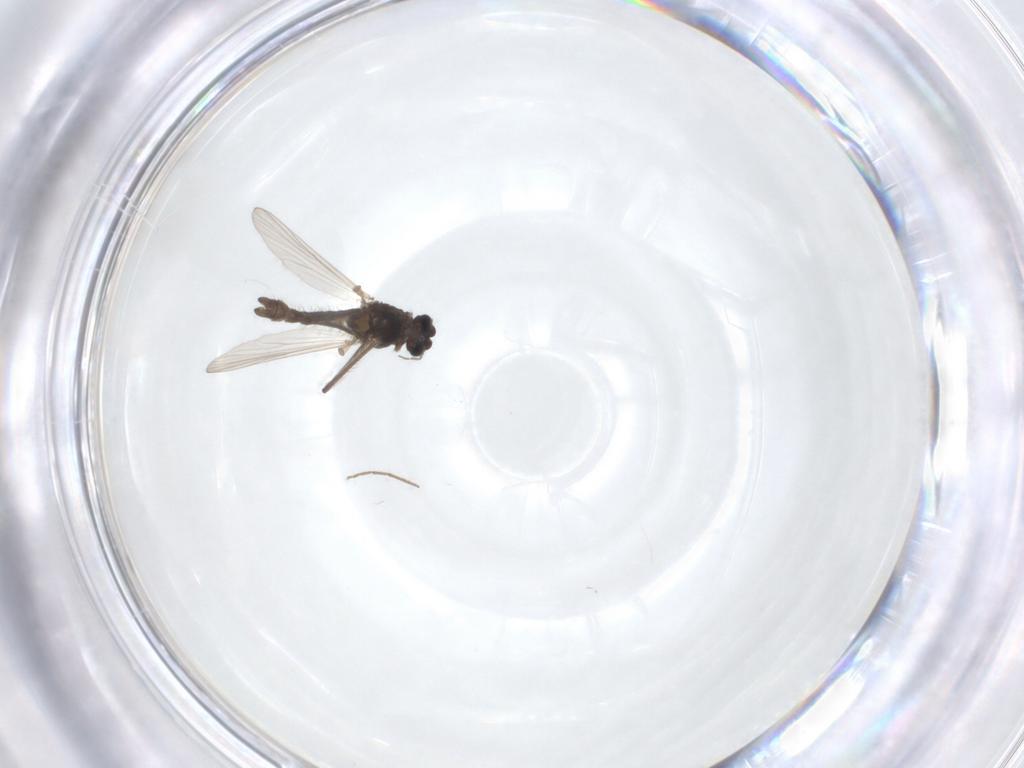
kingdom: Animalia
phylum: Arthropoda
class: Insecta
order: Diptera
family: Chironomidae
